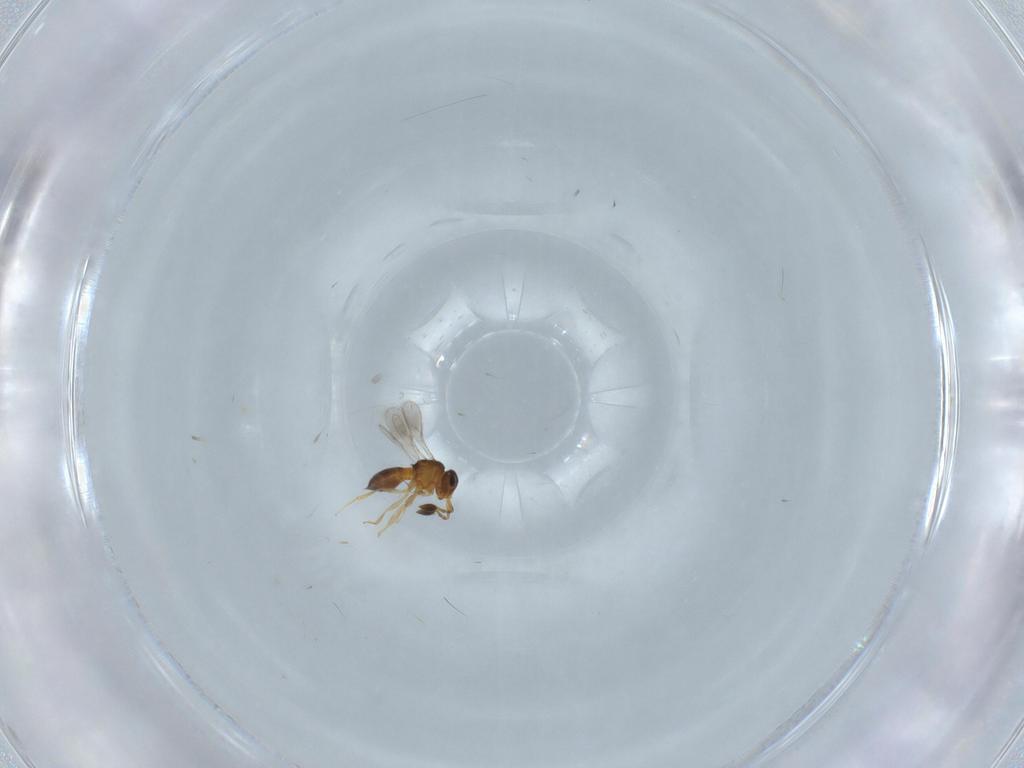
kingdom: Animalia
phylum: Arthropoda
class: Insecta
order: Hymenoptera
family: Scelionidae
